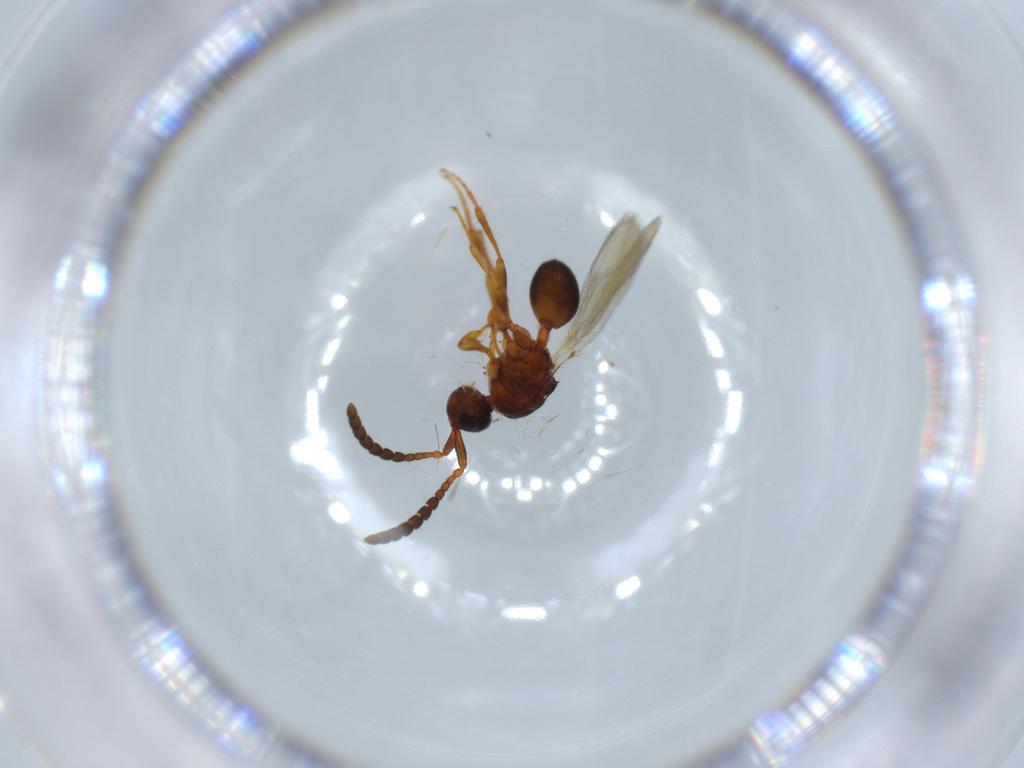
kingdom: Animalia
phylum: Arthropoda
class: Insecta
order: Hymenoptera
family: Diapriidae
